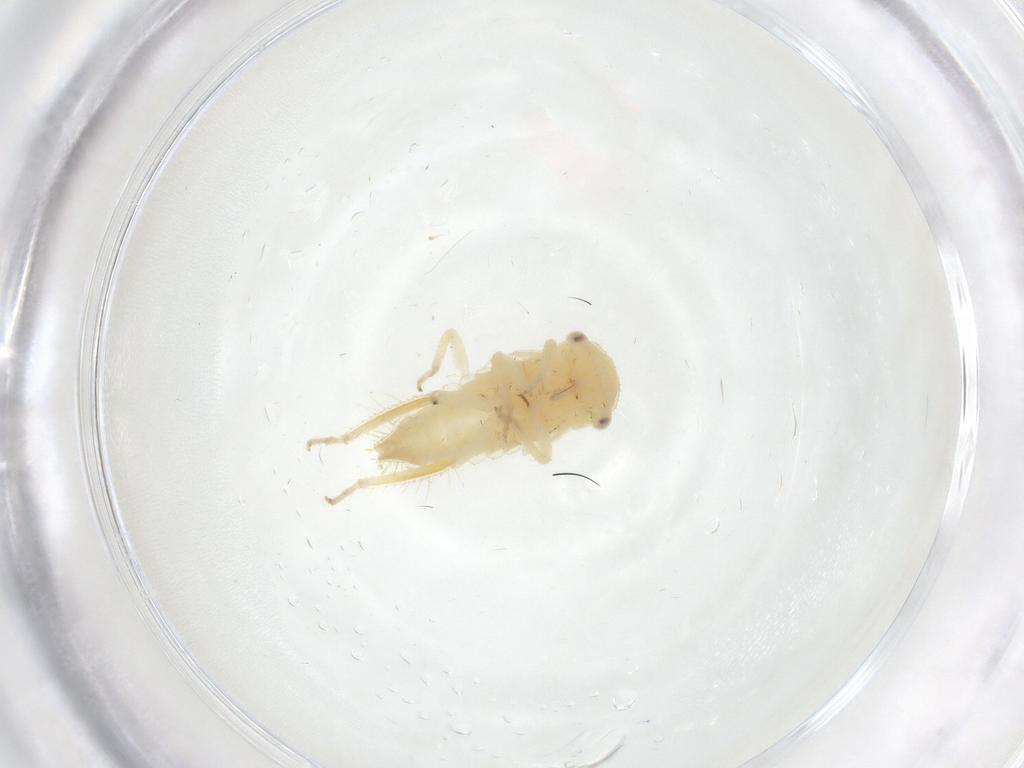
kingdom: Animalia
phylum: Arthropoda
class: Insecta
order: Hemiptera
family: Cicadellidae
